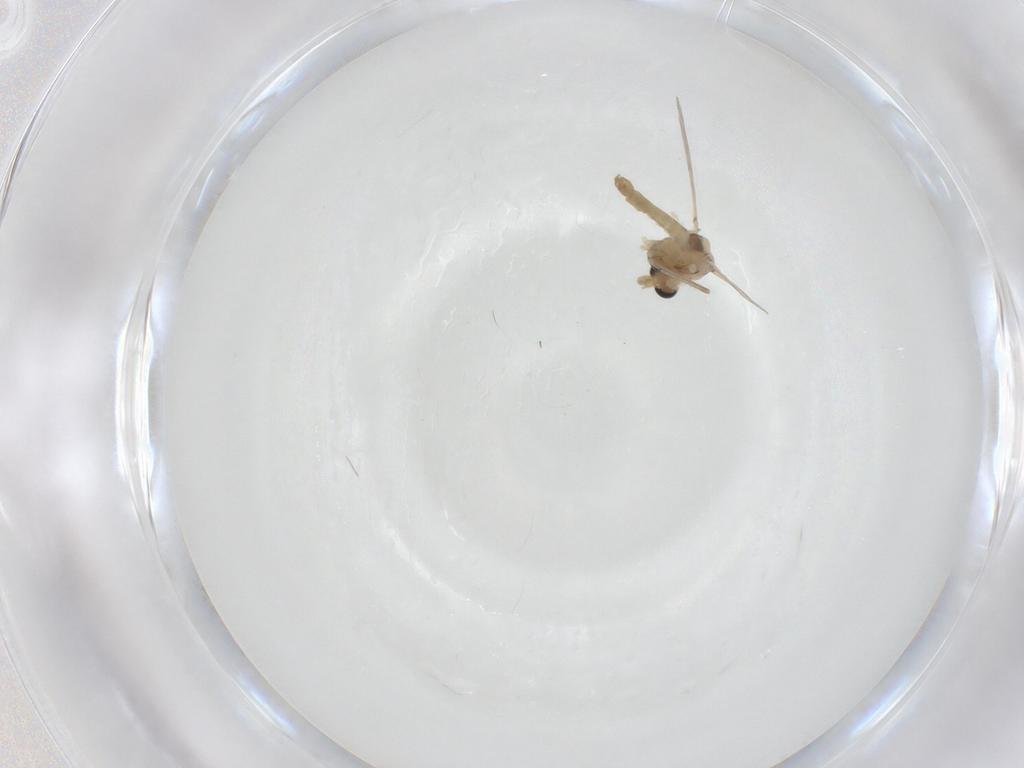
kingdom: Animalia
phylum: Arthropoda
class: Insecta
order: Diptera
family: Chironomidae
